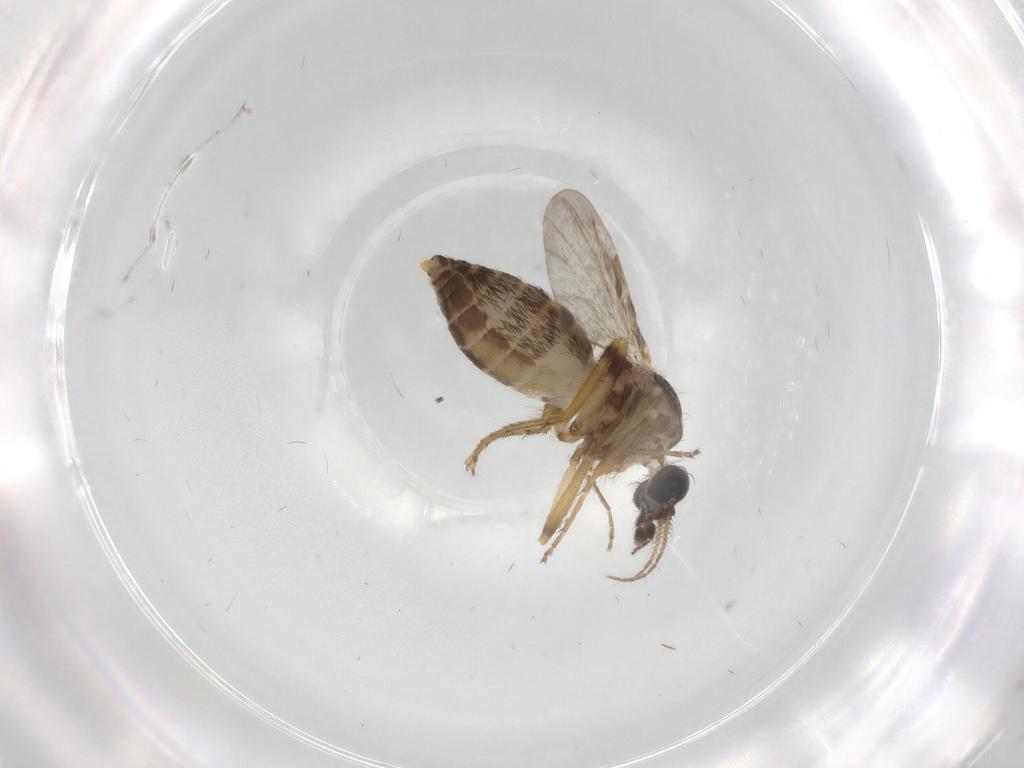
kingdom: Animalia
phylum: Arthropoda
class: Insecta
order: Diptera
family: Ceratopogonidae
